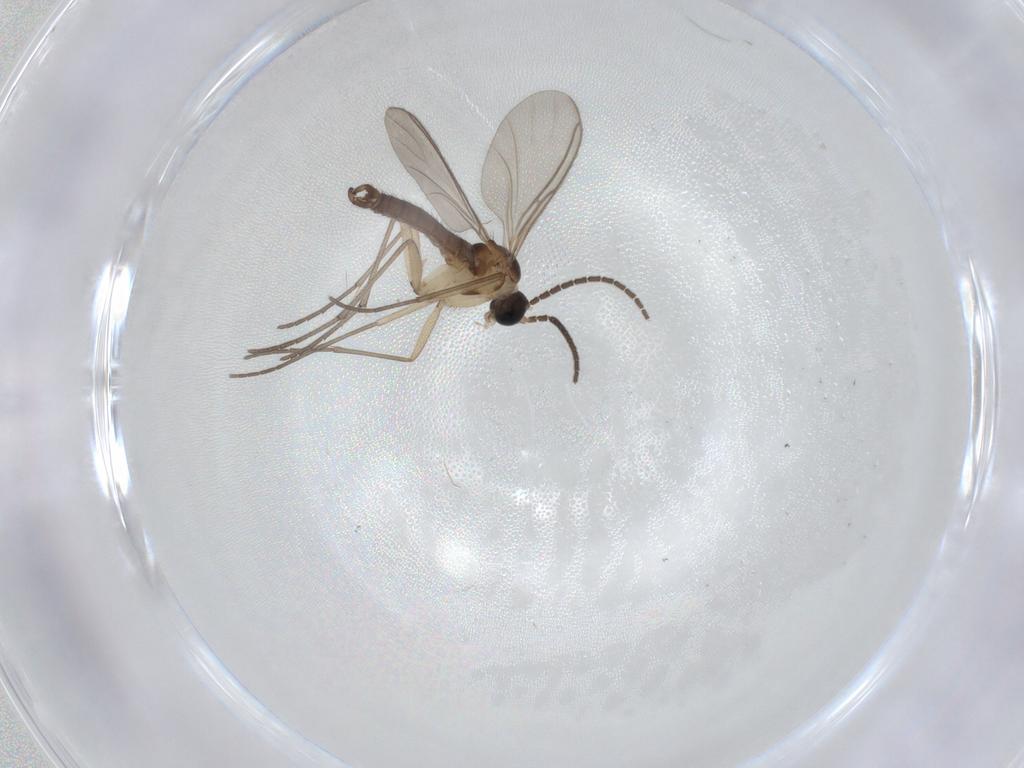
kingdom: Animalia
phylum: Arthropoda
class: Insecta
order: Diptera
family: Sciaridae
